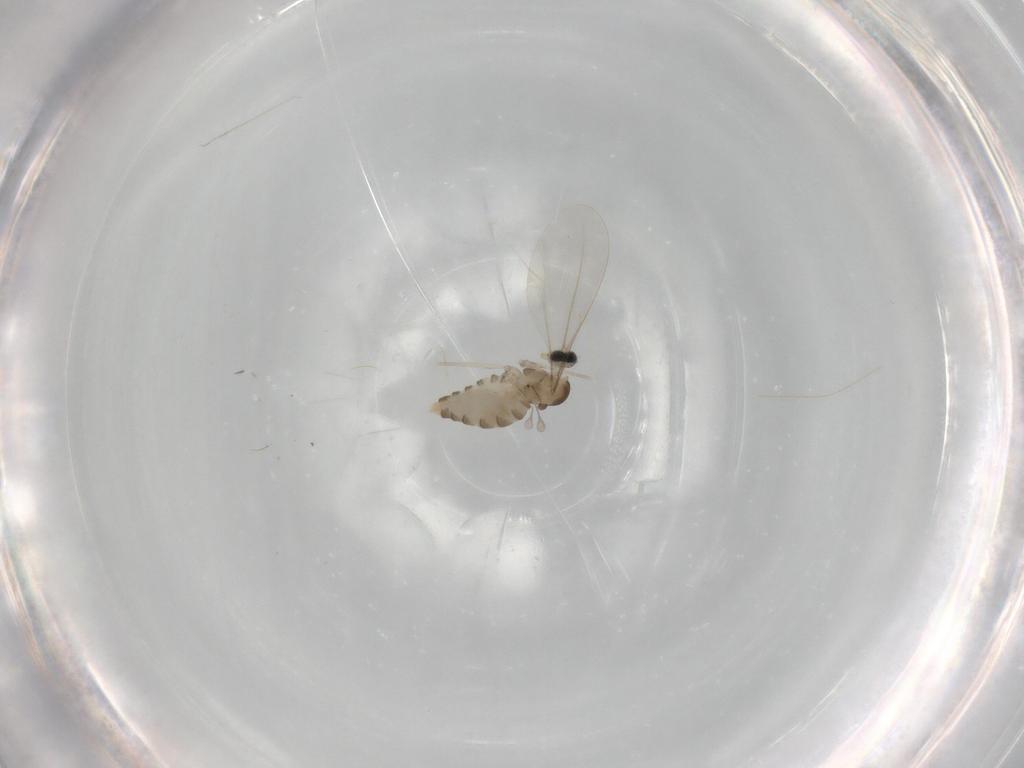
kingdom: Animalia
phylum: Arthropoda
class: Insecta
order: Diptera
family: Cecidomyiidae
